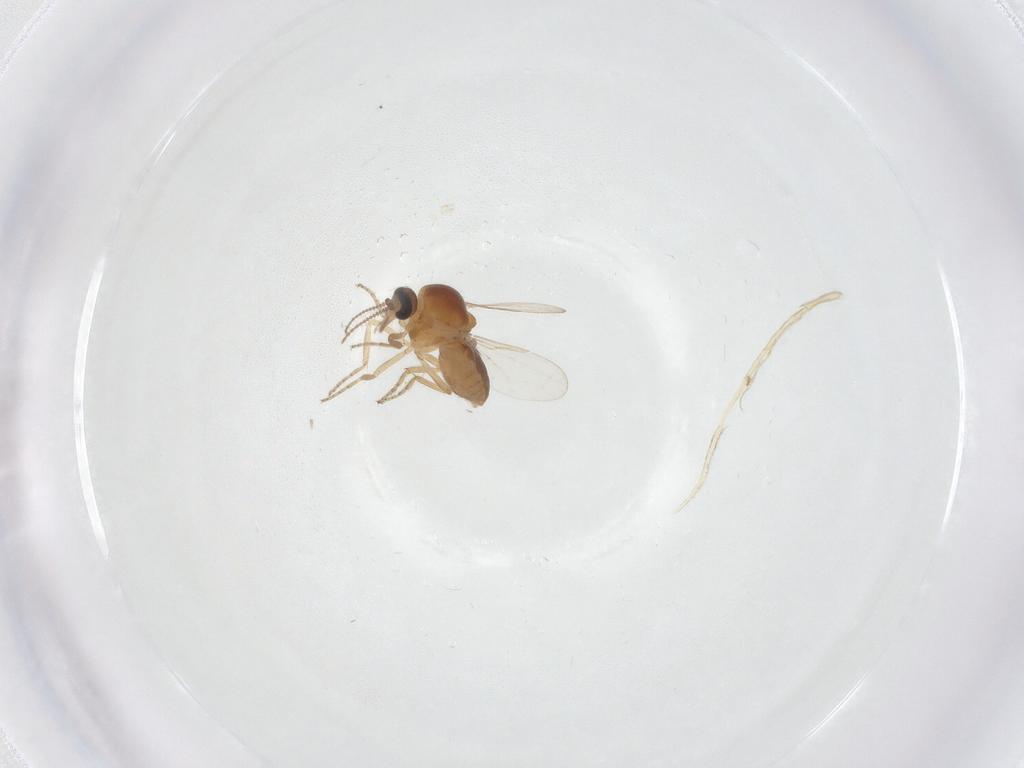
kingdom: Animalia
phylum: Arthropoda
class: Insecta
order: Diptera
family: Ceratopogonidae
